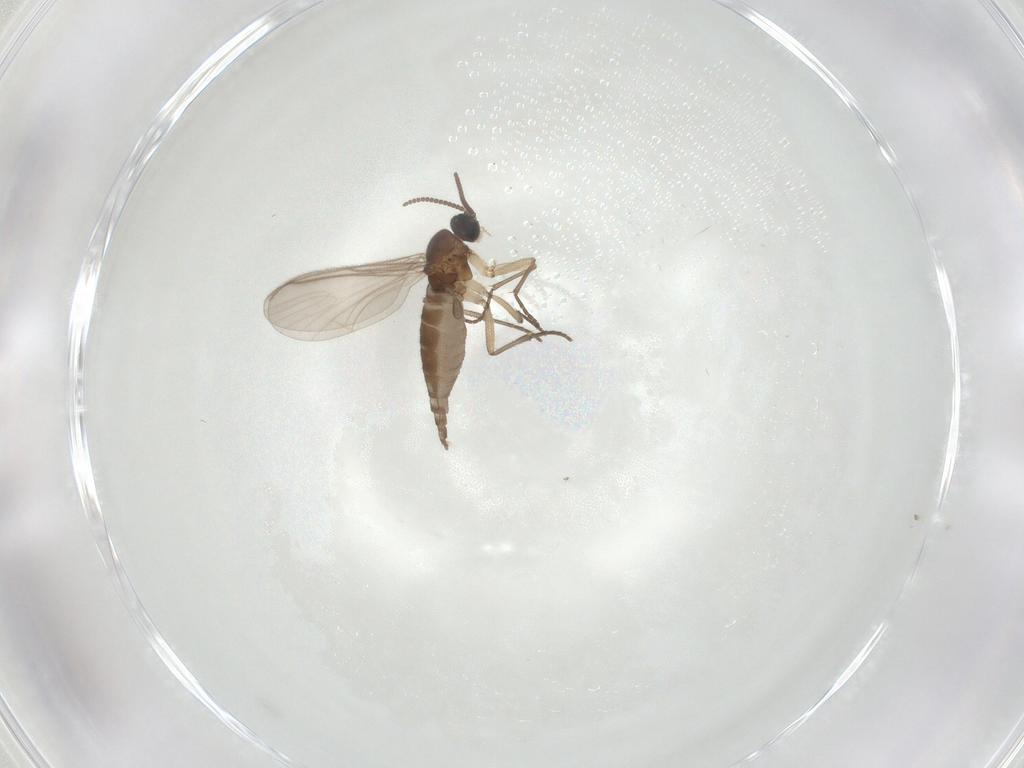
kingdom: Animalia
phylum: Arthropoda
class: Insecta
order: Diptera
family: Sciaridae
